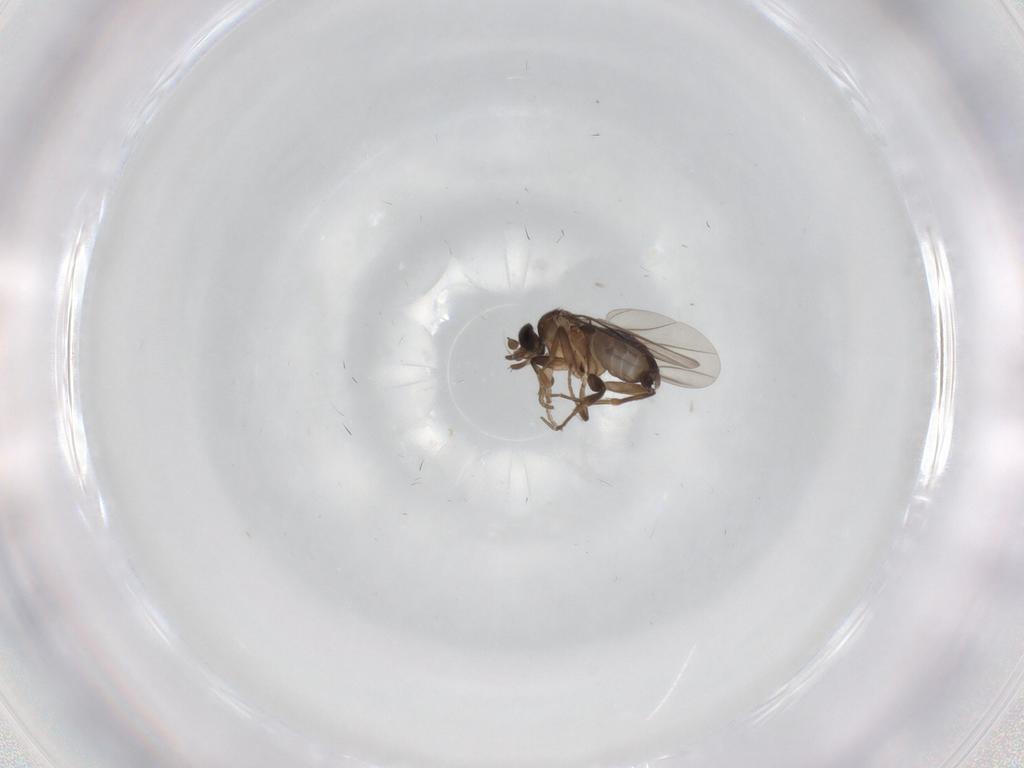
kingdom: Animalia
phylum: Arthropoda
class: Insecta
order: Diptera
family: Phoridae
